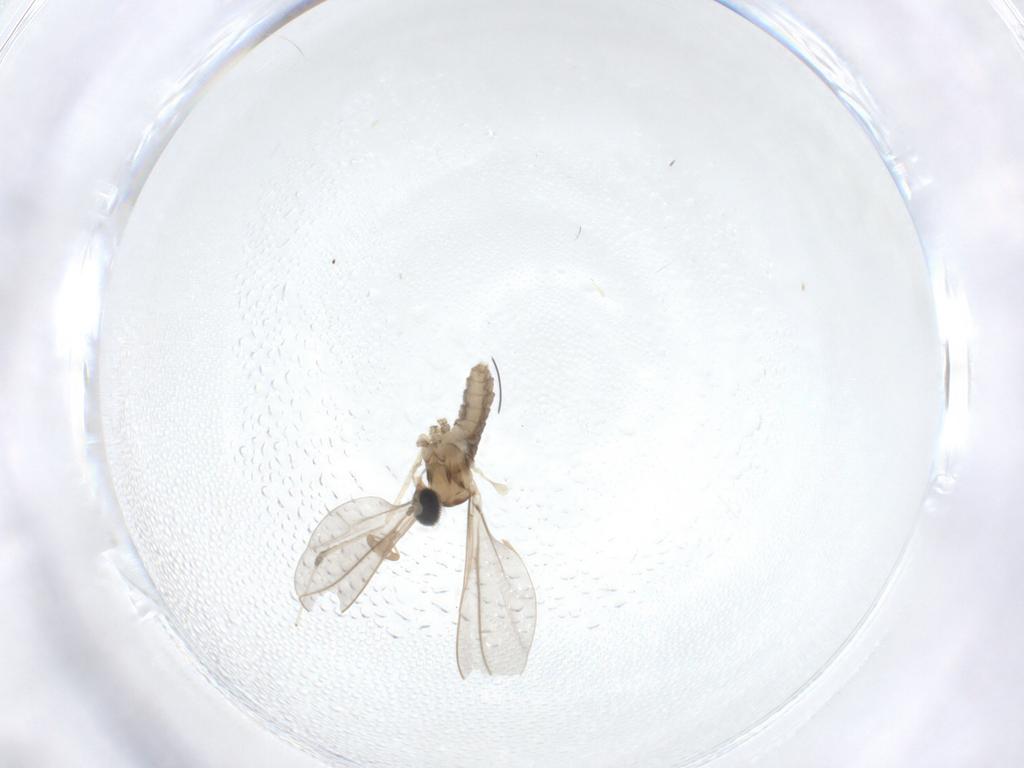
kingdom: Animalia
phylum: Arthropoda
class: Insecta
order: Diptera
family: Cecidomyiidae
